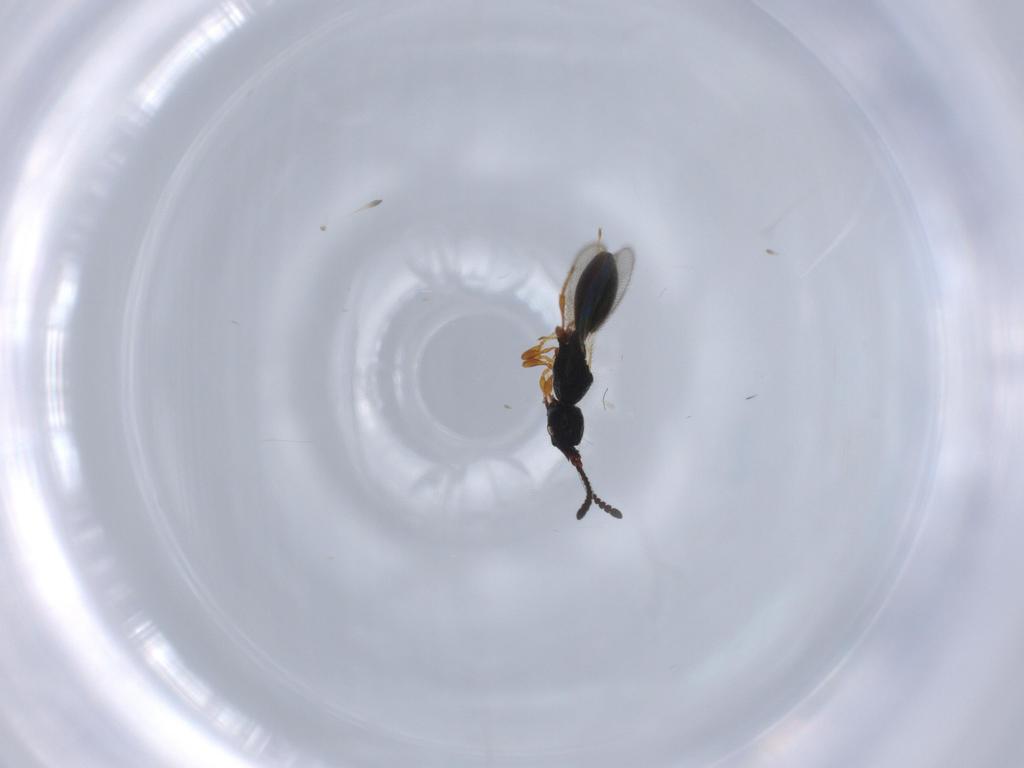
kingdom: Animalia
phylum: Arthropoda
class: Insecta
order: Hymenoptera
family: Diapriidae
